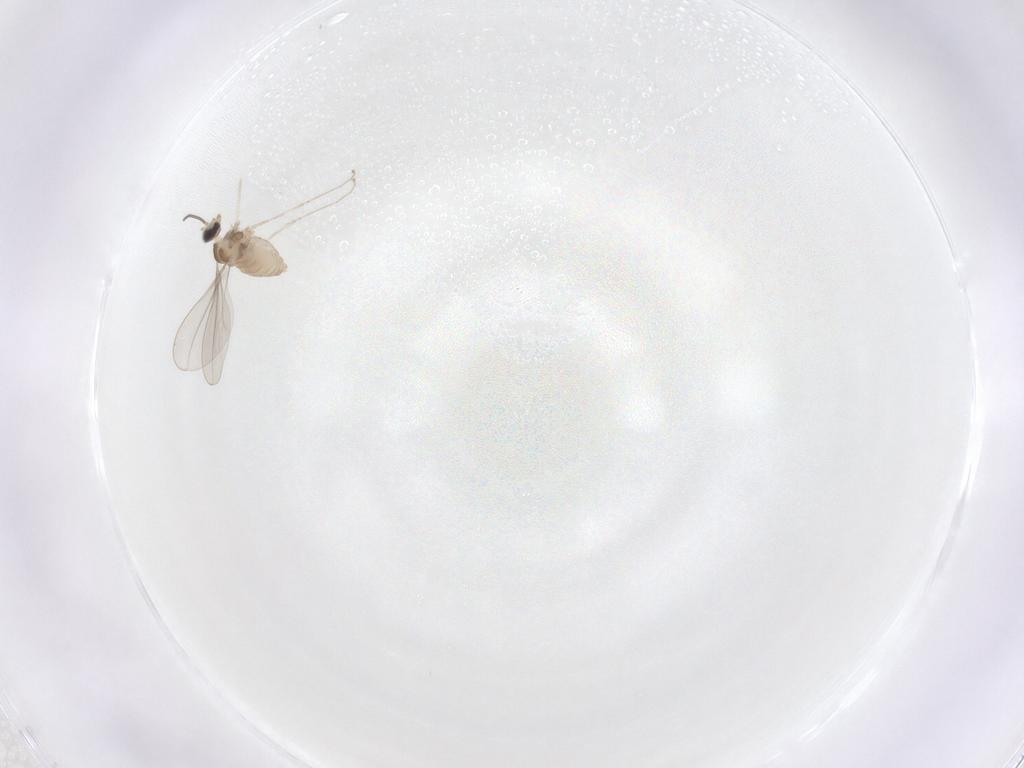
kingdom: Animalia
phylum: Arthropoda
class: Insecta
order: Diptera
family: Cecidomyiidae
